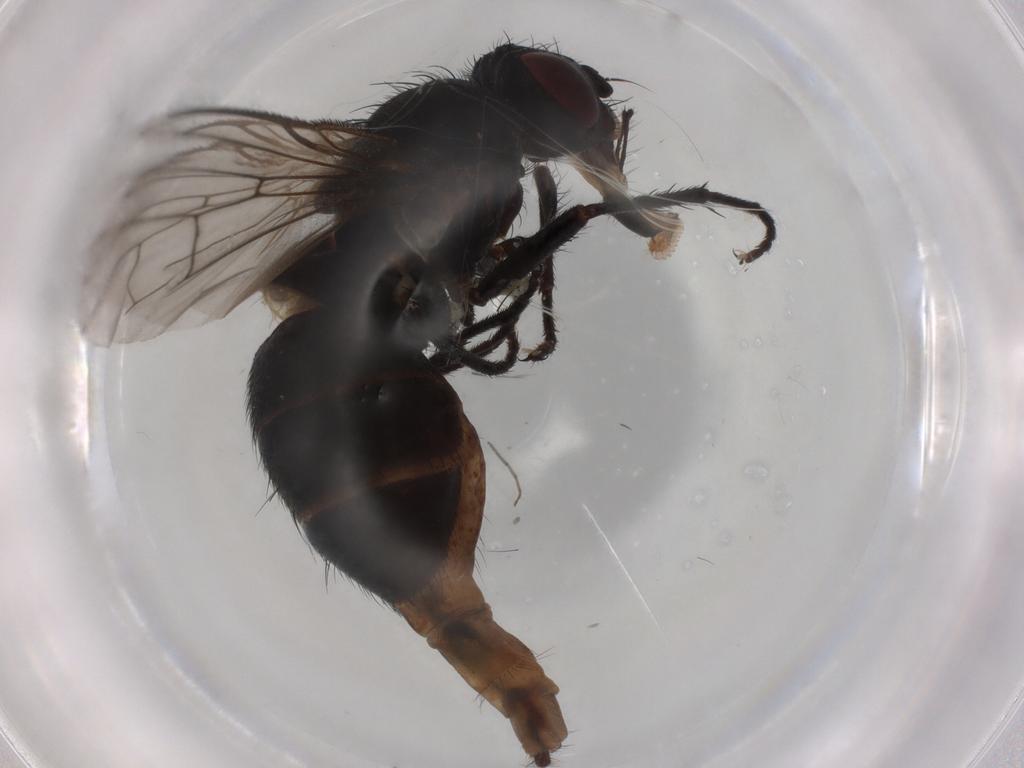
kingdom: Animalia
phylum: Arthropoda
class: Insecta
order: Diptera
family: Muscidae
